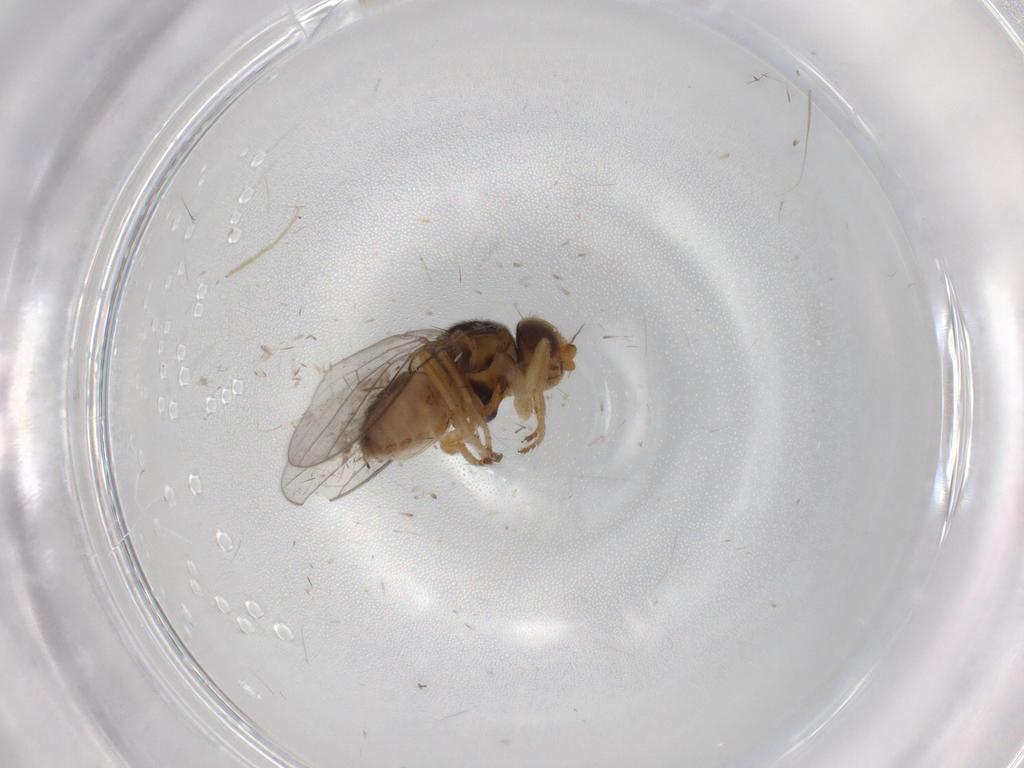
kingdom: Animalia
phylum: Arthropoda
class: Insecta
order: Diptera
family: Chloropidae
